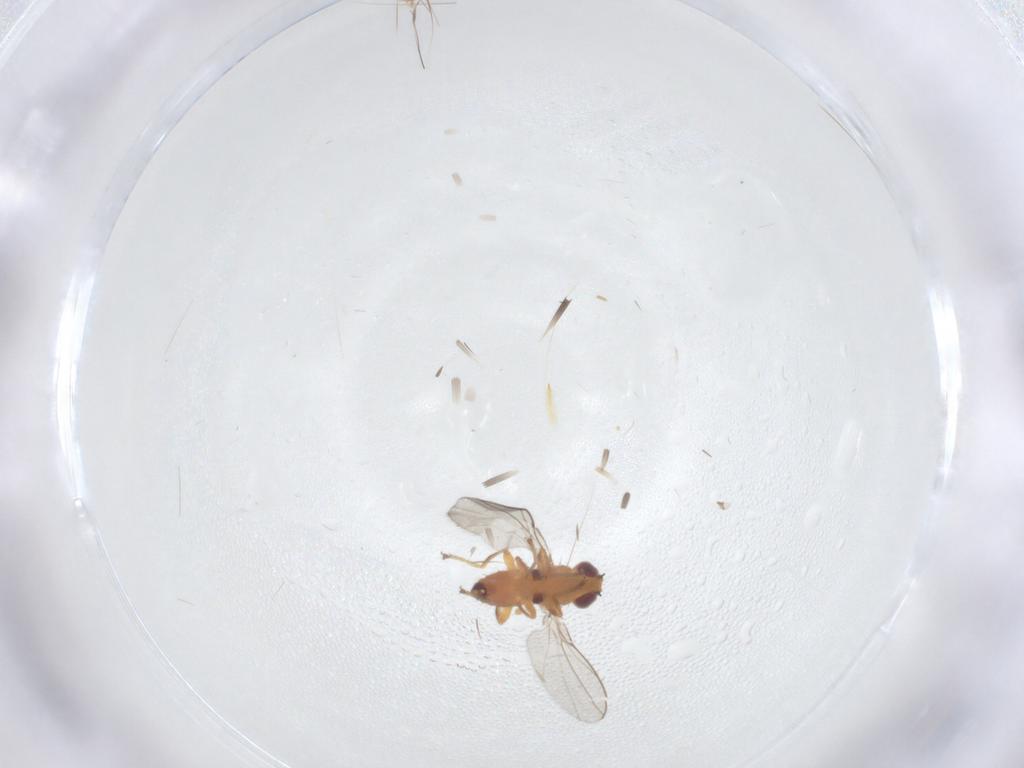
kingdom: Animalia
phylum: Arthropoda
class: Insecta
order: Diptera
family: Chloropidae
